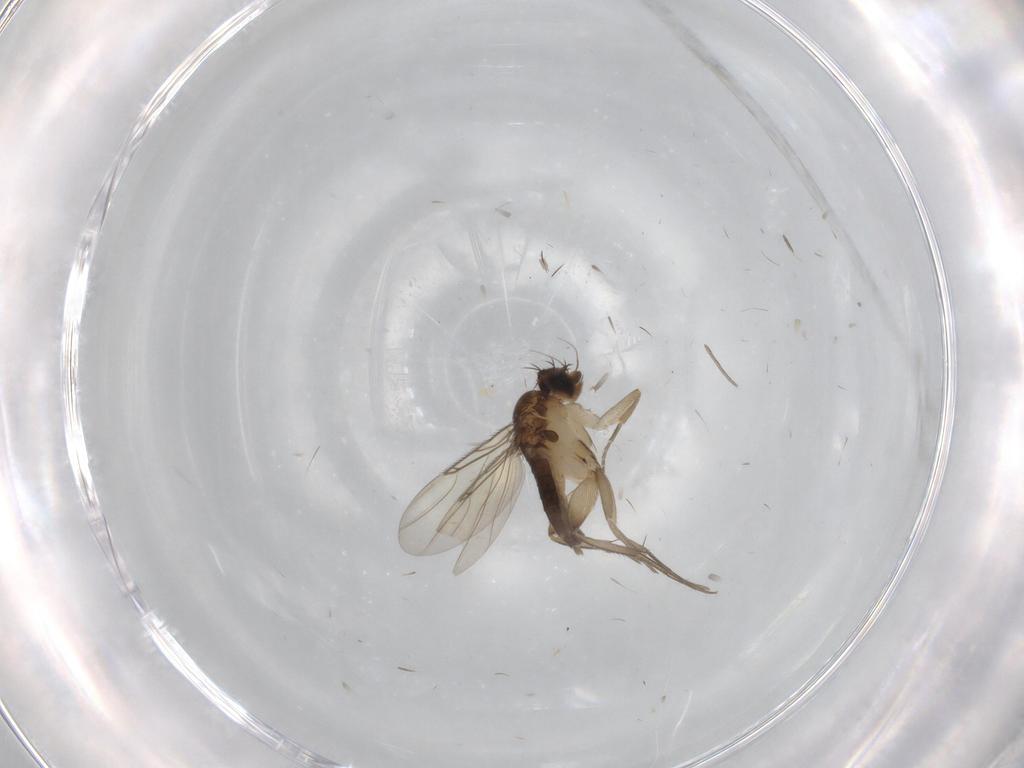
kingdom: Animalia
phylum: Arthropoda
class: Insecta
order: Diptera
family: Phoridae
